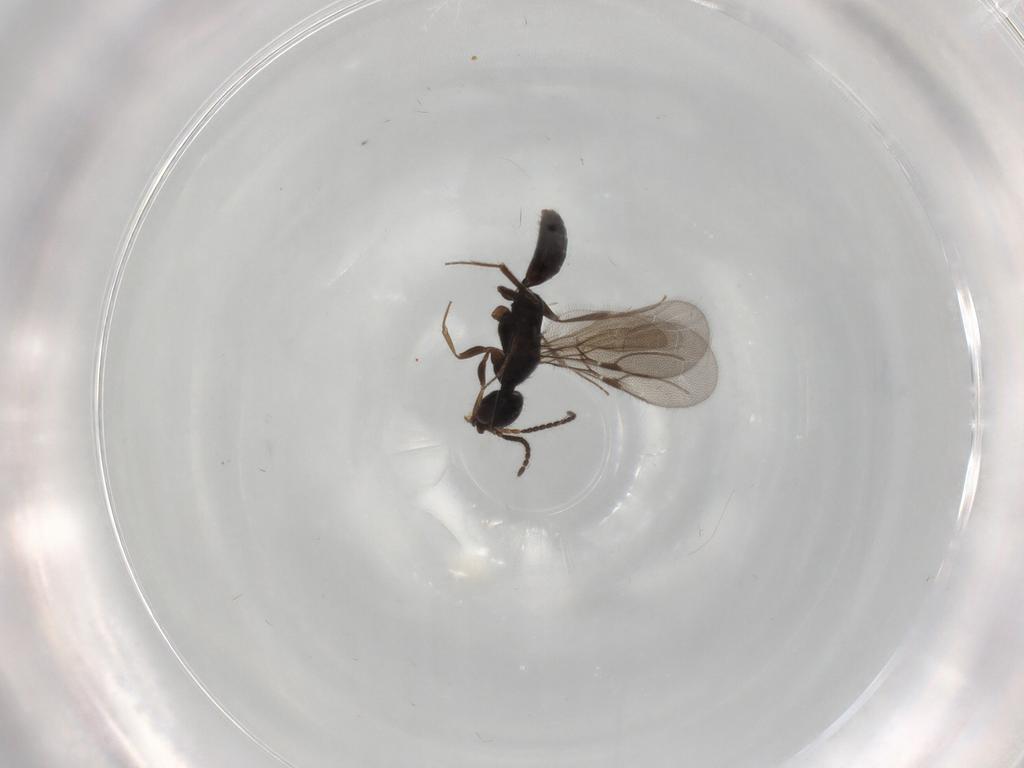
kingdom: Animalia
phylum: Arthropoda
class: Insecta
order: Hymenoptera
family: Bethylidae
